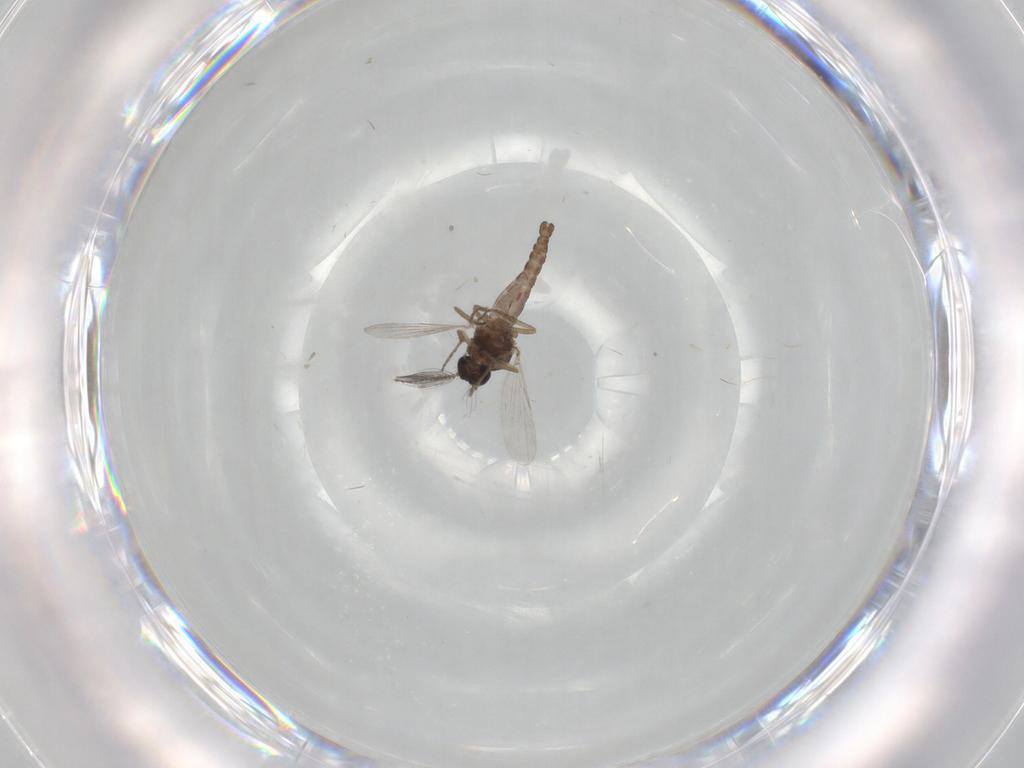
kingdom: Animalia
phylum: Arthropoda
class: Insecta
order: Diptera
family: Ceratopogonidae
